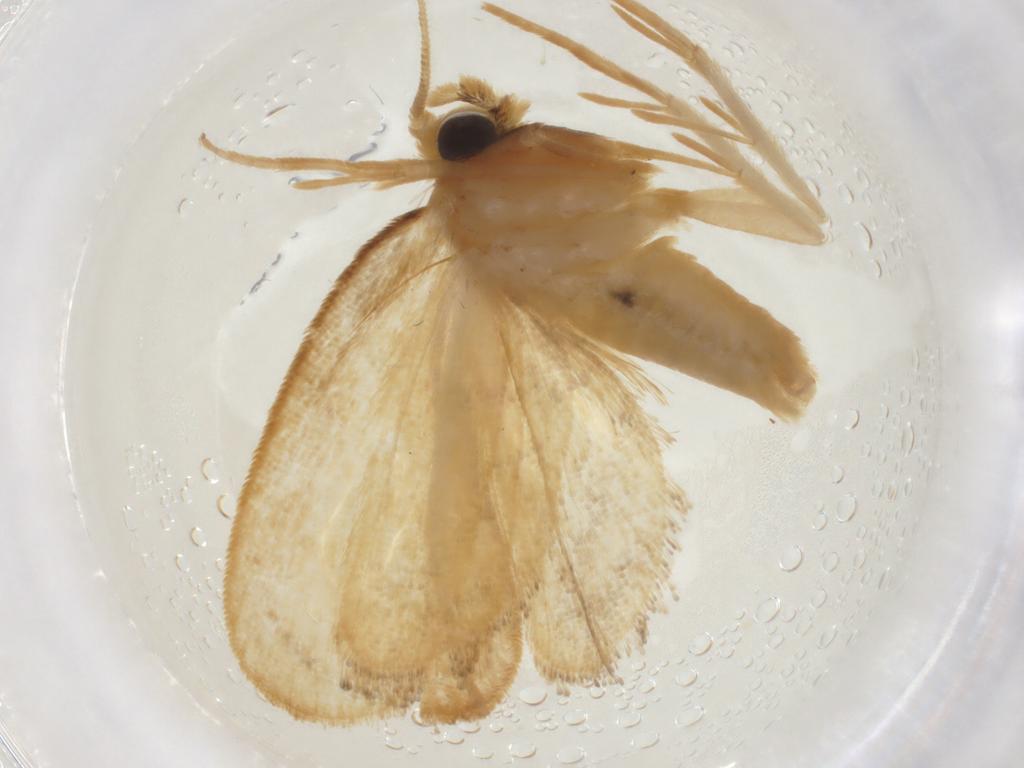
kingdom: Animalia
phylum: Arthropoda
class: Insecta
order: Lepidoptera
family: Psychidae
